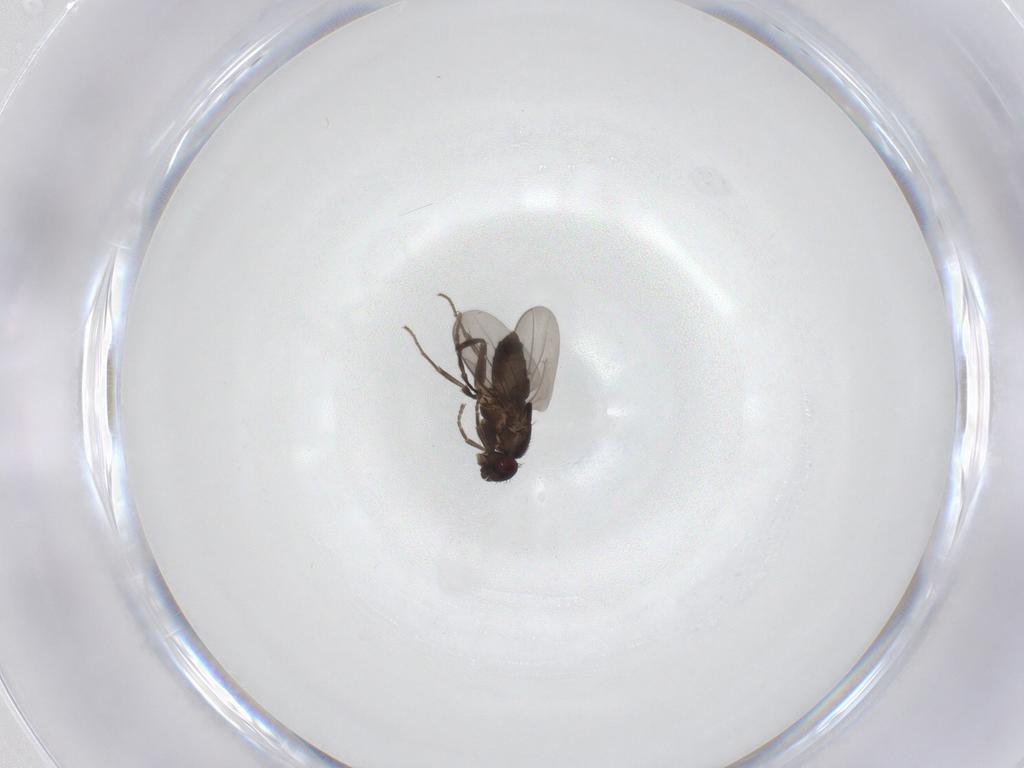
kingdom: Animalia
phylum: Arthropoda
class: Insecta
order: Diptera
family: Sphaeroceridae
